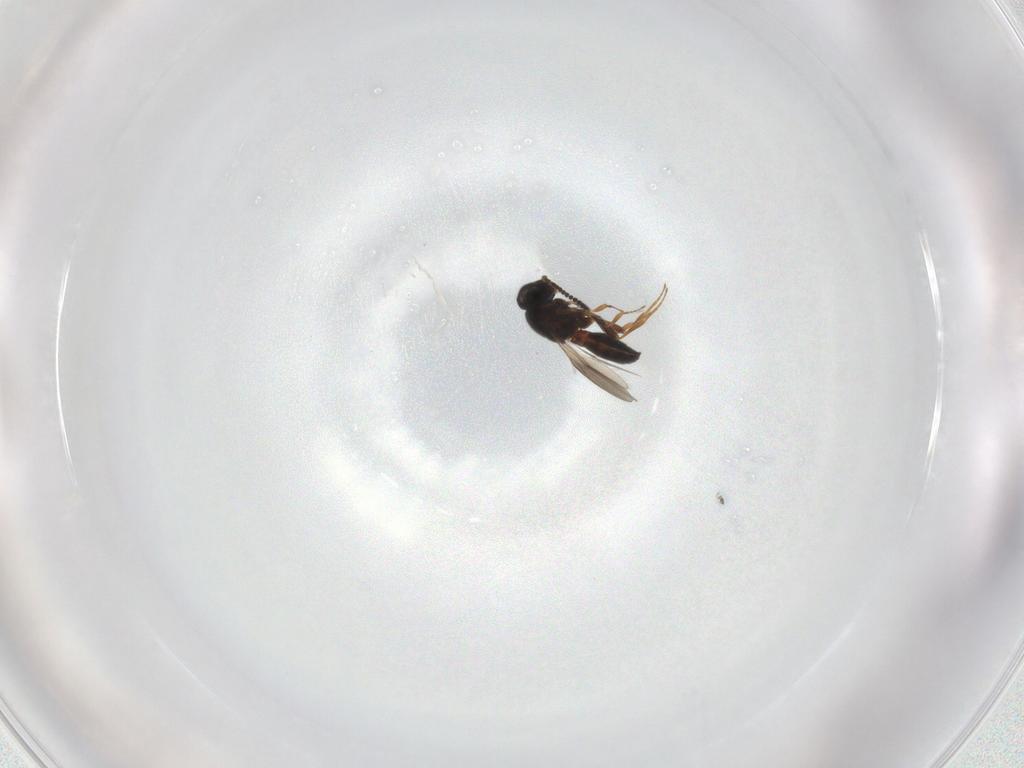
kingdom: Animalia
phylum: Arthropoda
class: Insecta
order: Hymenoptera
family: Scelionidae
